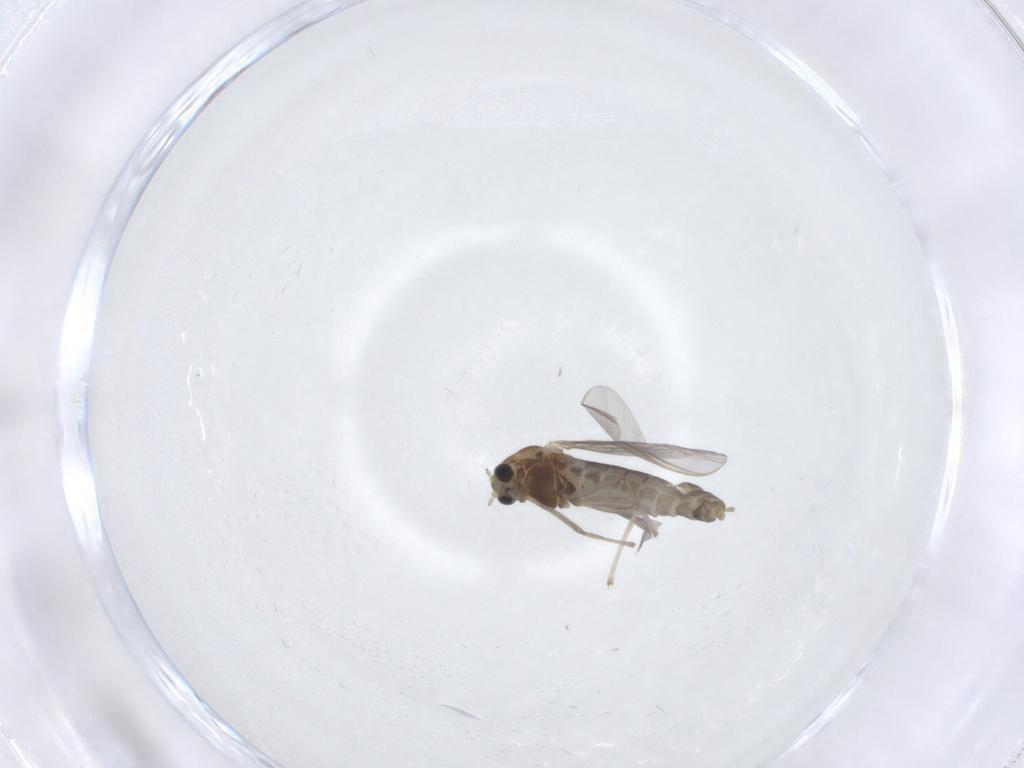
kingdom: Animalia
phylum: Arthropoda
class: Insecta
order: Diptera
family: Chironomidae
